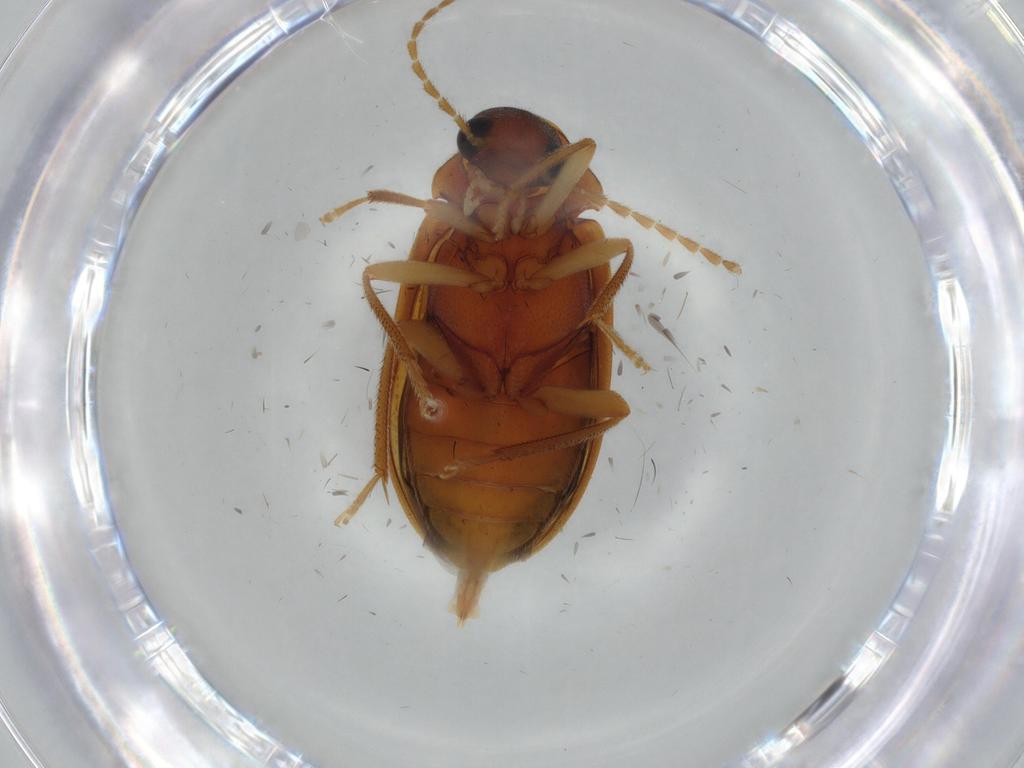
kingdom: Animalia
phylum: Arthropoda
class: Insecta
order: Coleoptera
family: Ptilodactylidae
